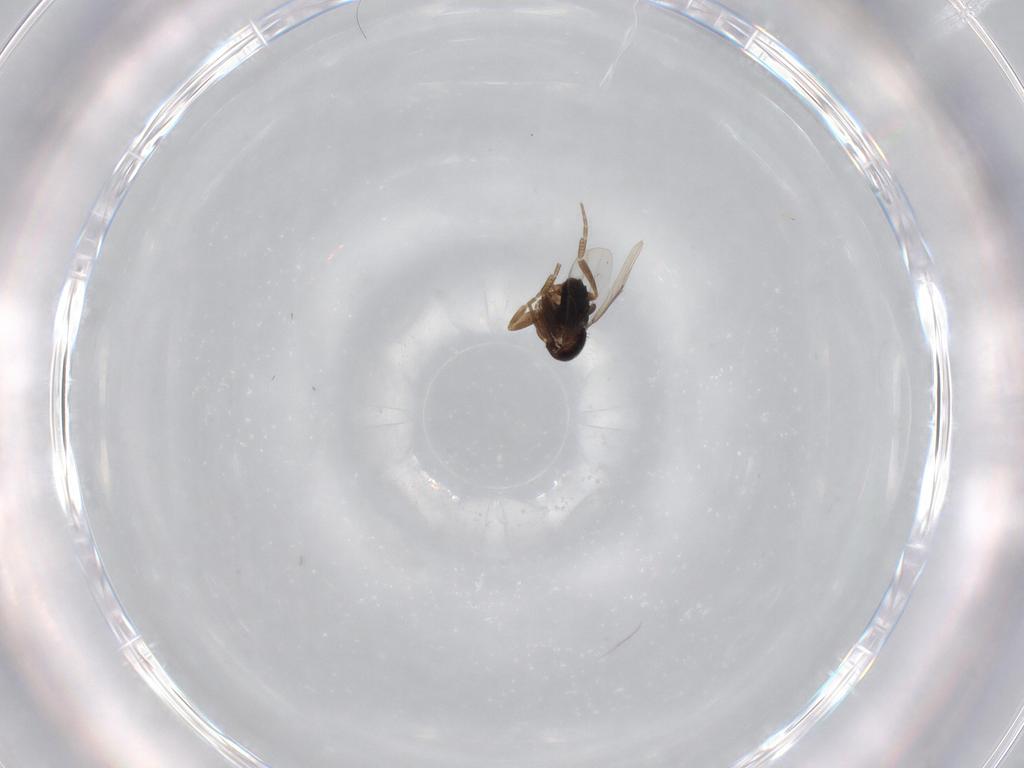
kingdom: Animalia
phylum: Arthropoda
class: Insecta
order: Diptera
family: Phoridae
